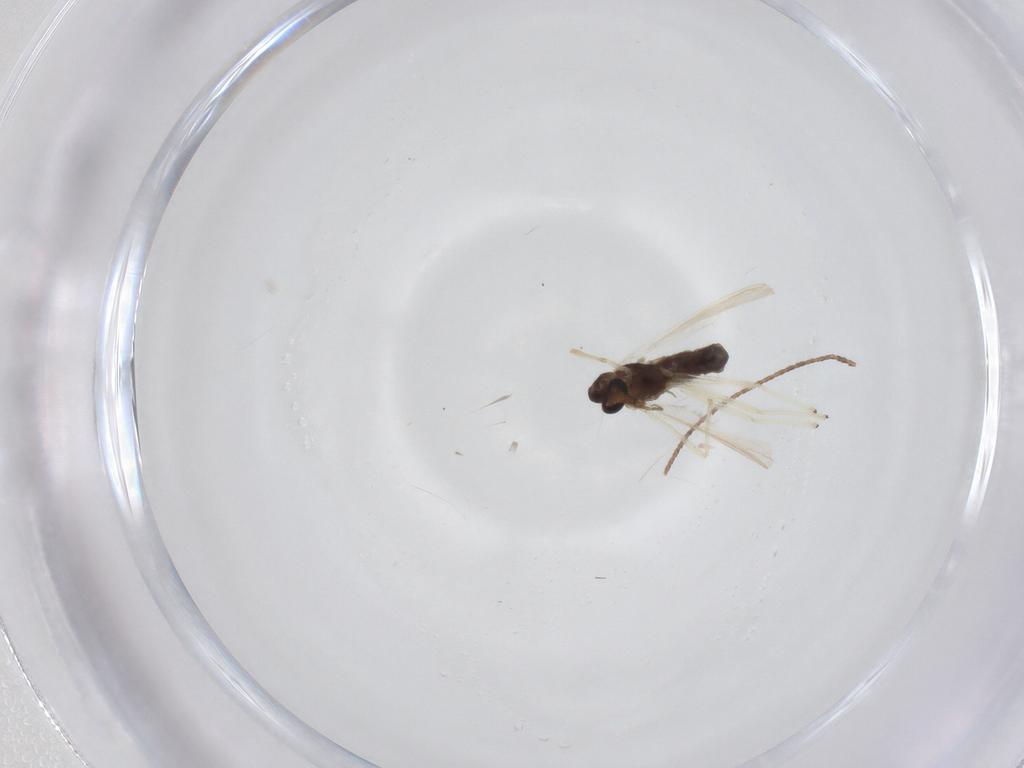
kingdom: Animalia
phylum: Arthropoda
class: Insecta
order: Diptera
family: Chironomidae
